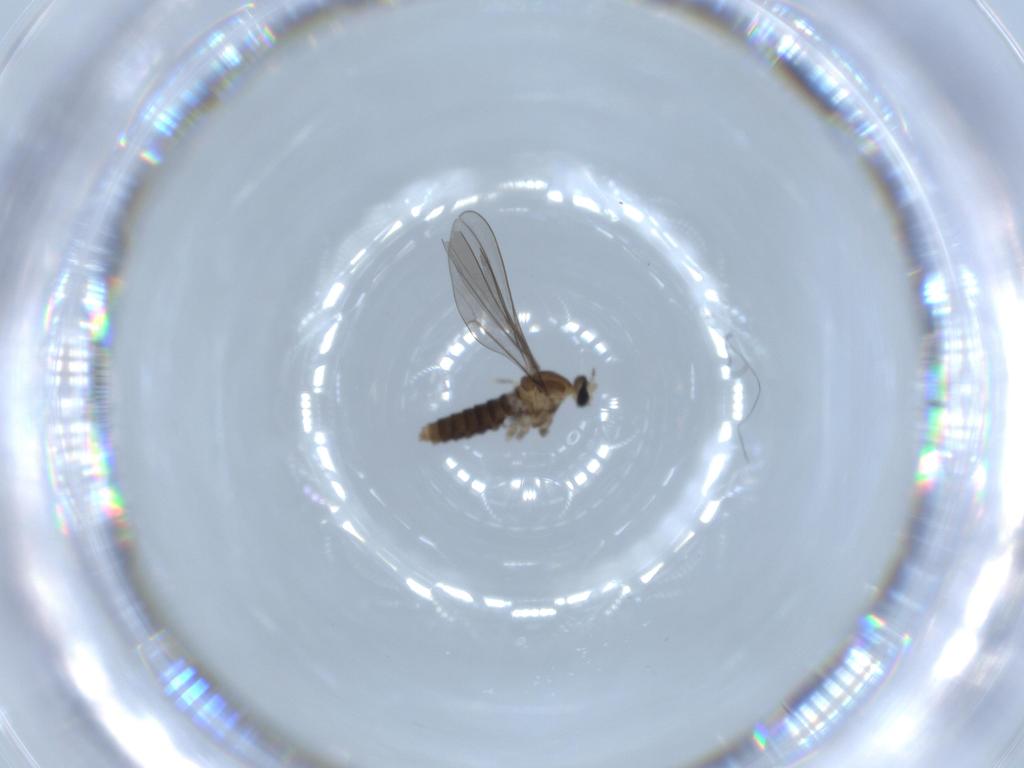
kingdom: Animalia
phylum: Arthropoda
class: Insecta
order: Diptera
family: Cecidomyiidae
